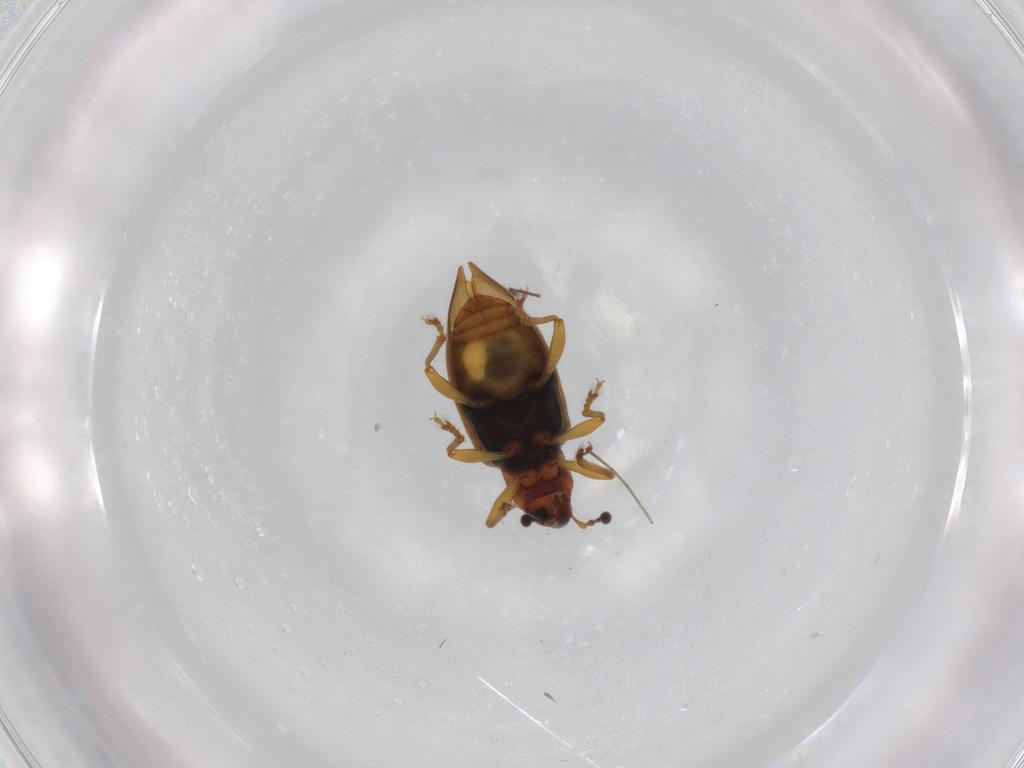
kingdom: Animalia
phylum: Arthropoda
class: Insecta
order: Coleoptera
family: Curculionidae
